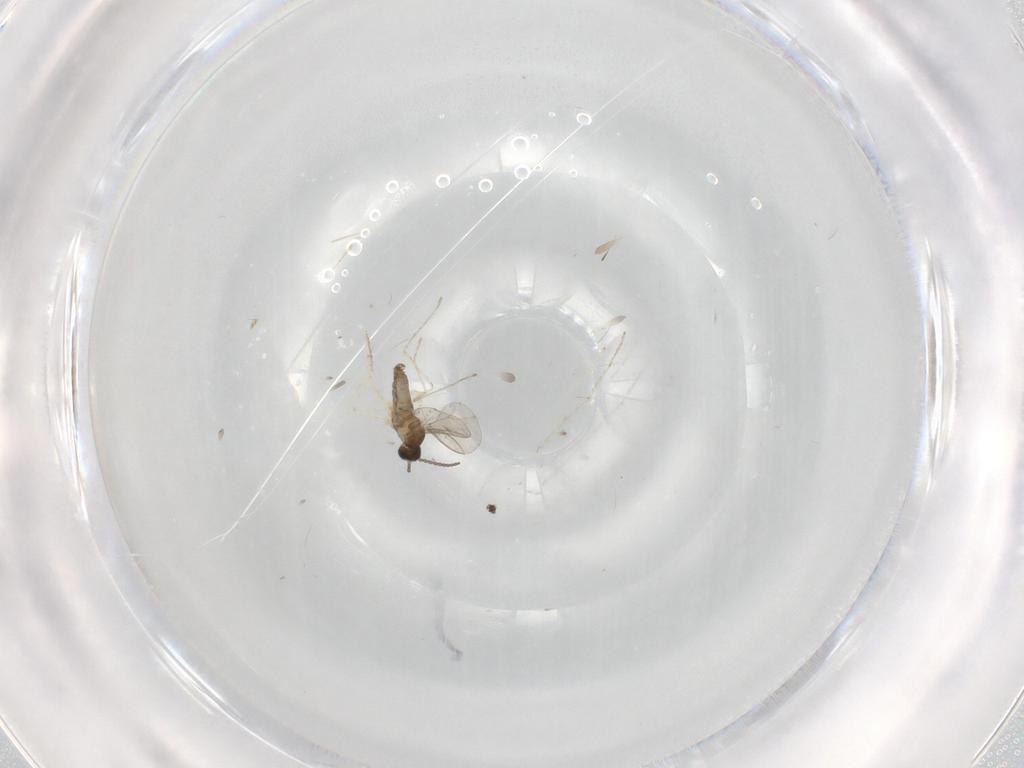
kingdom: Animalia
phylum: Arthropoda
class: Insecta
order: Diptera
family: Cecidomyiidae
